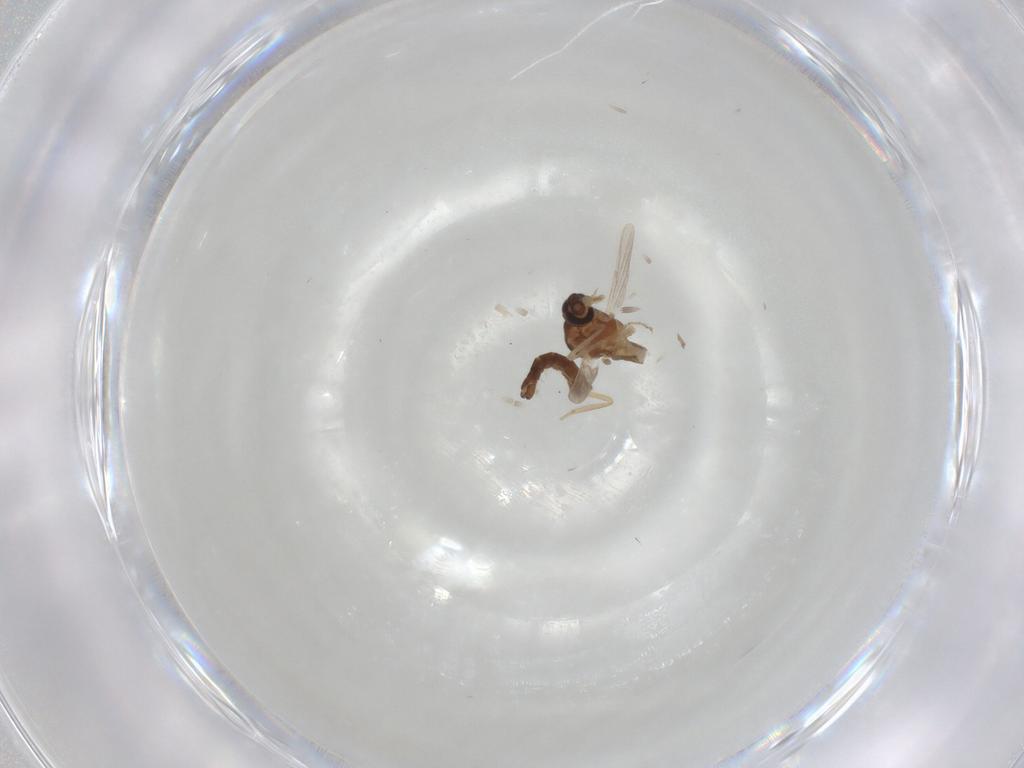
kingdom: Animalia
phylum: Arthropoda
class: Insecta
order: Diptera
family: Ceratopogonidae
